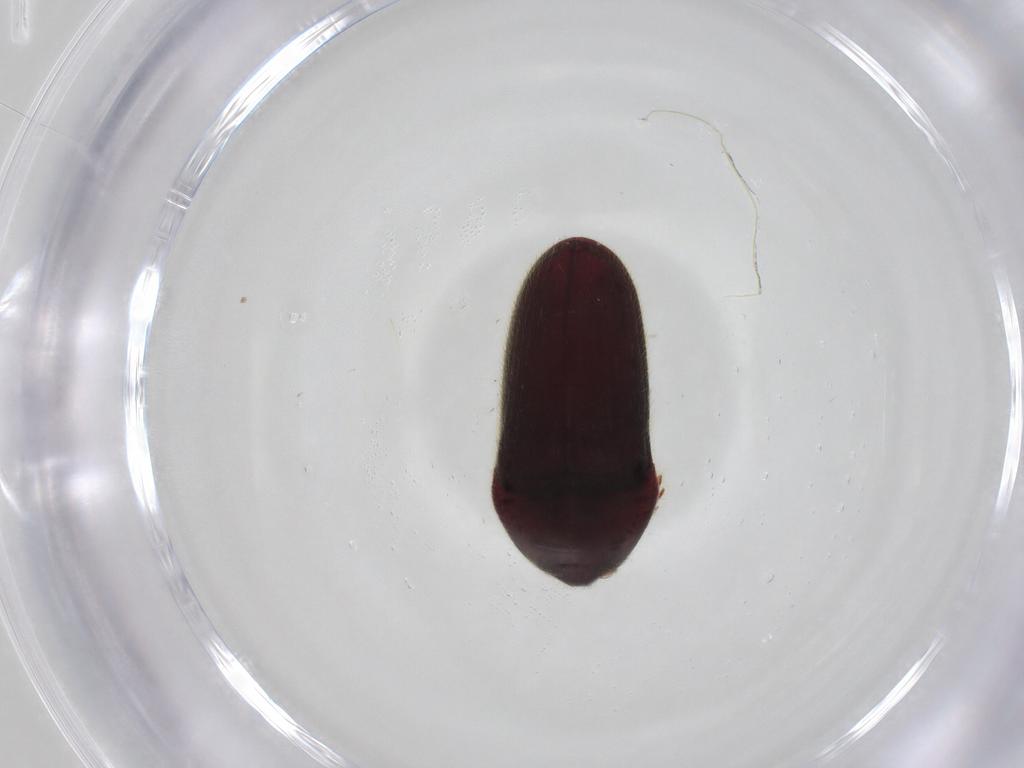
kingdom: Animalia
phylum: Arthropoda
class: Insecta
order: Coleoptera
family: Throscidae
